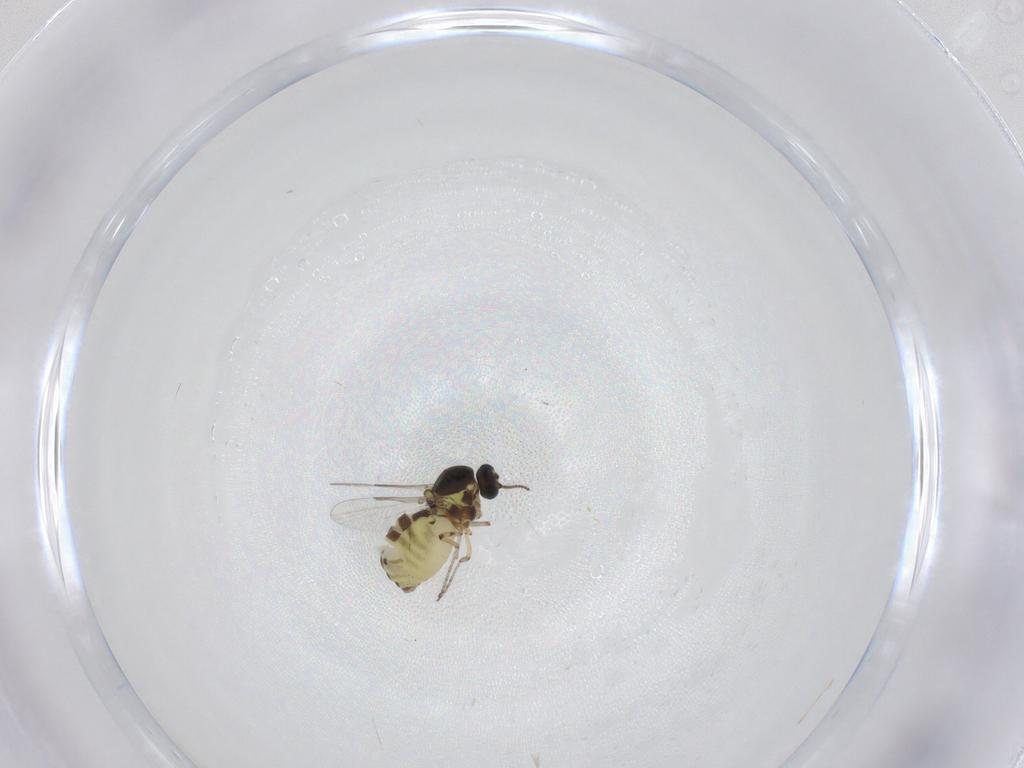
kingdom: Animalia
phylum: Arthropoda
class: Insecta
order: Diptera
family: Ceratopogonidae
